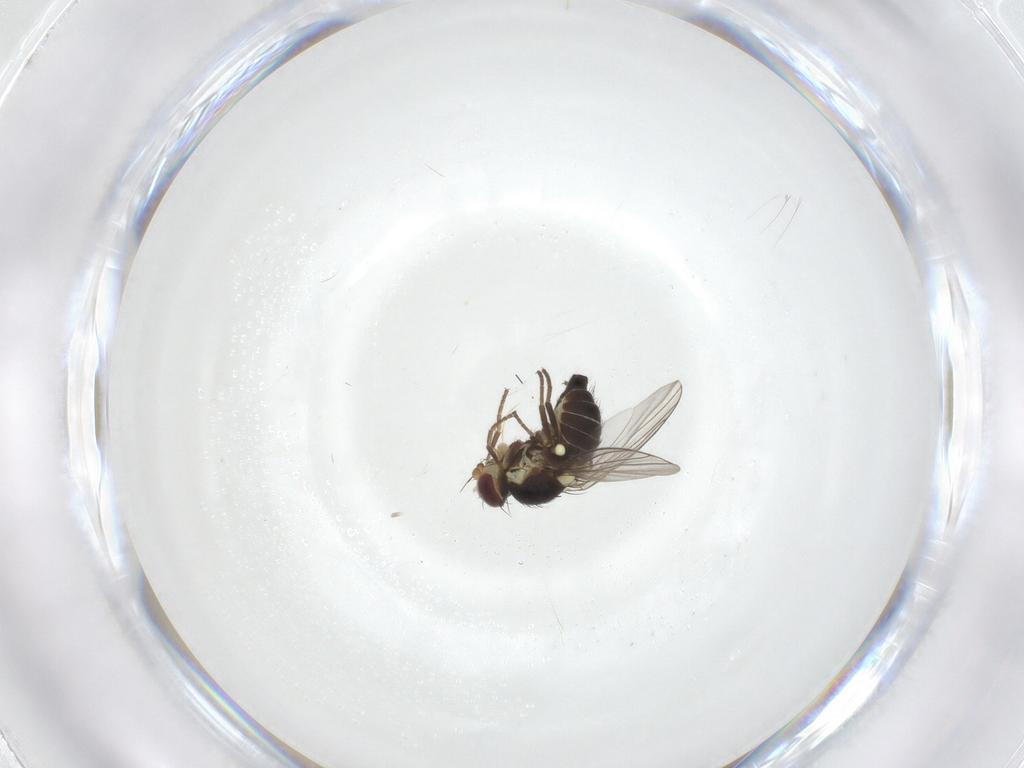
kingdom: Animalia
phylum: Arthropoda
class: Insecta
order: Diptera
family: Agromyzidae
